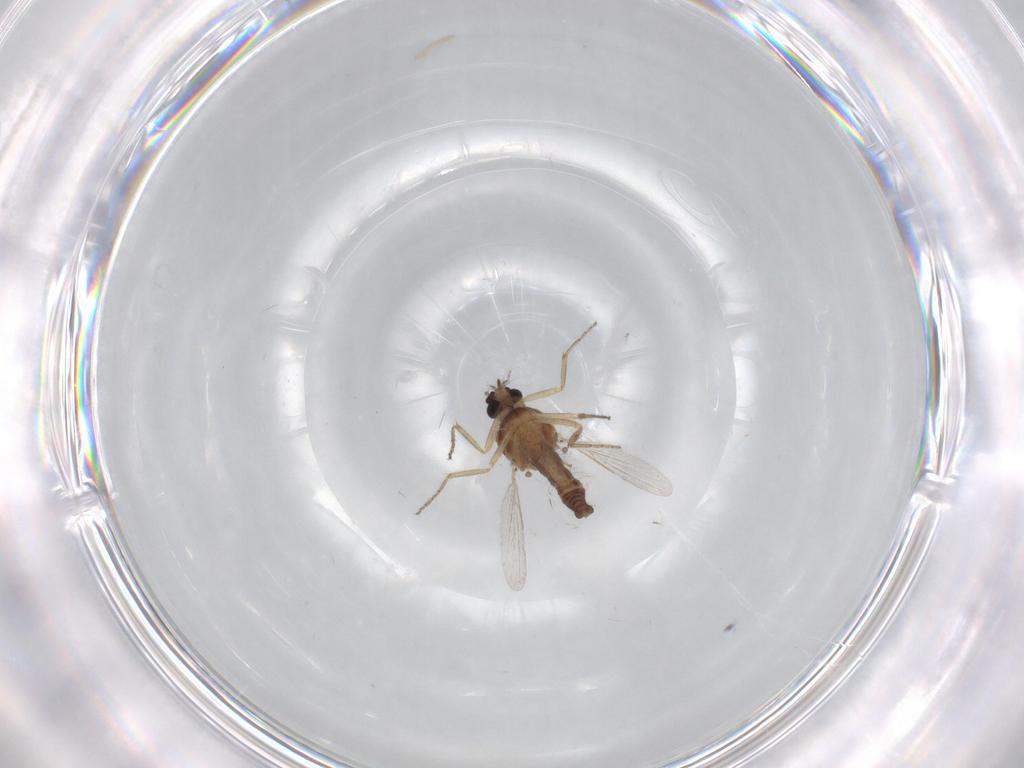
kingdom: Animalia
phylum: Arthropoda
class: Insecta
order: Diptera
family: Ceratopogonidae
